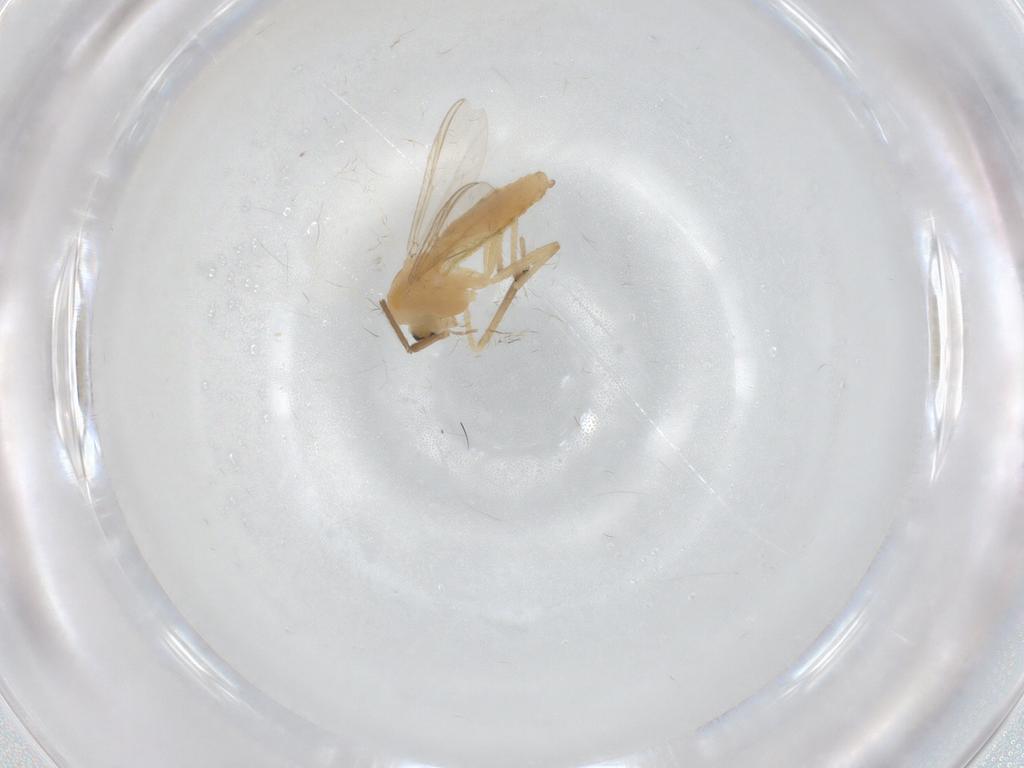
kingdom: Animalia
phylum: Arthropoda
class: Insecta
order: Diptera
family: Chironomidae
